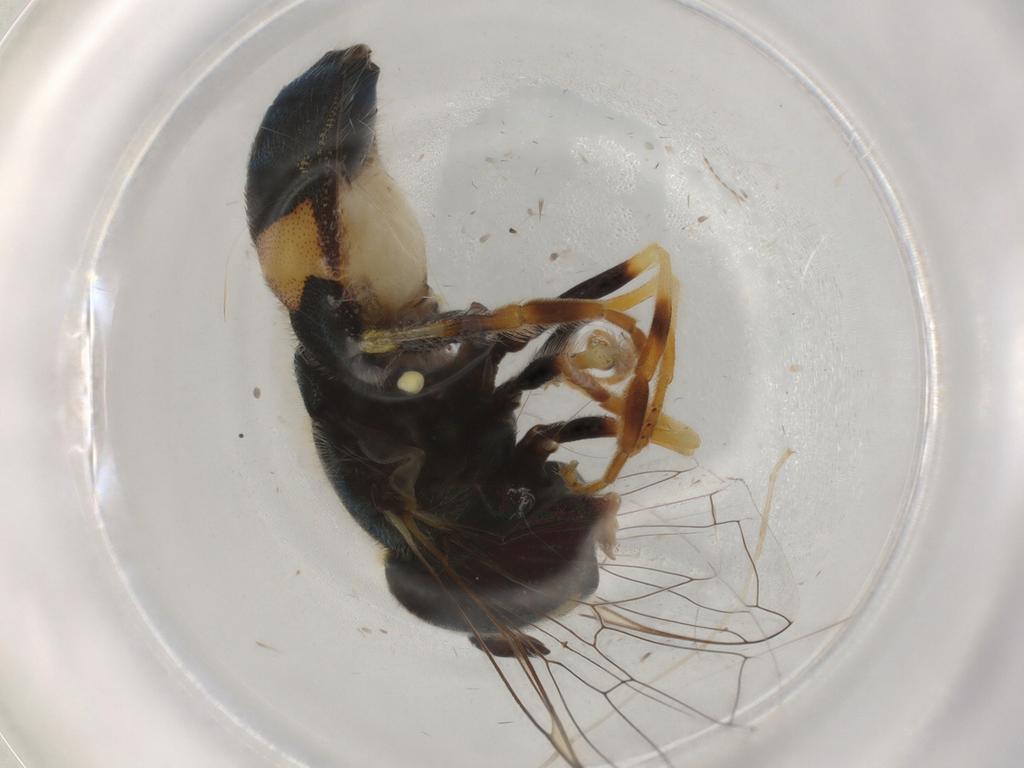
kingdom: Animalia
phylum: Arthropoda
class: Insecta
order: Diptera
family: Chironomidae
